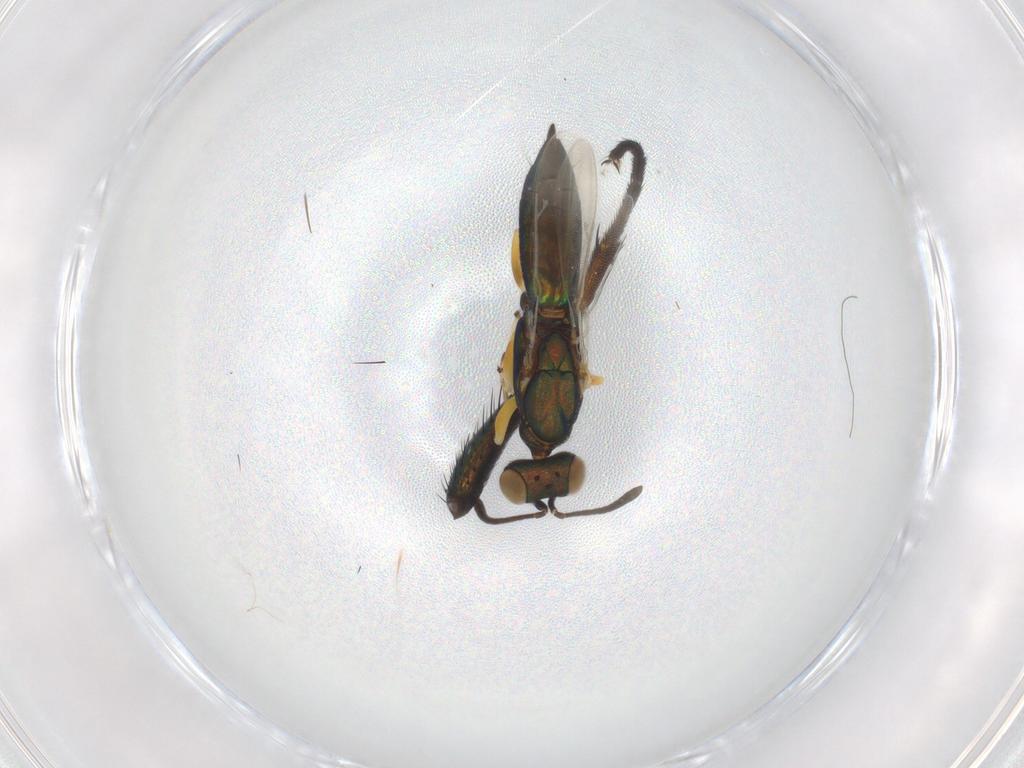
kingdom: Animalia
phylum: Arthropoda
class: Insecta
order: Hymenoptera
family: Pteromalidae
